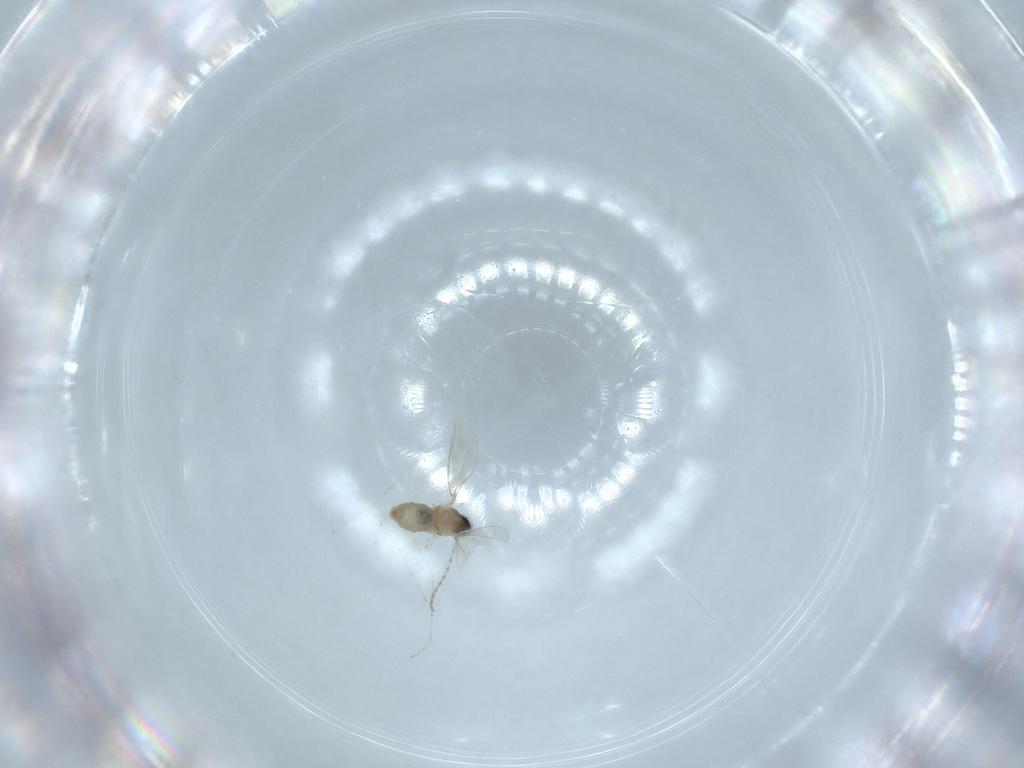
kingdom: Animalia
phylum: Arthropoda
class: Insecta
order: Diptera
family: Cecidomyiidae
